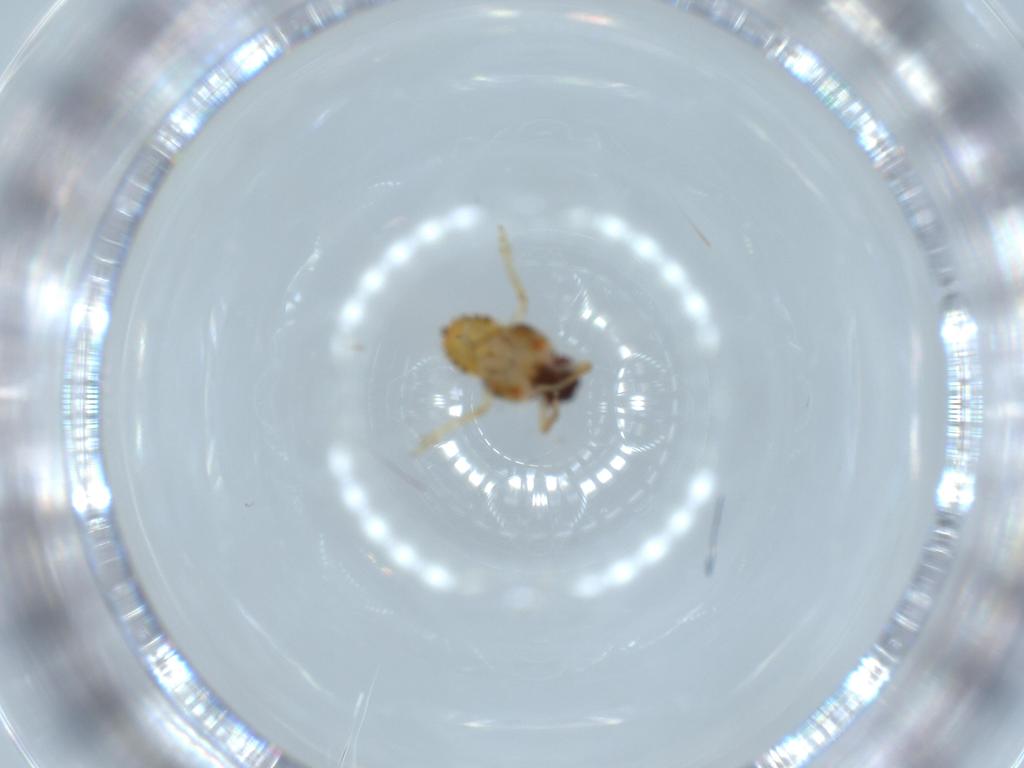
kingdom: Animalia
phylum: Arthropoda
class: Insecta
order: Hemiptera
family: Issidae
